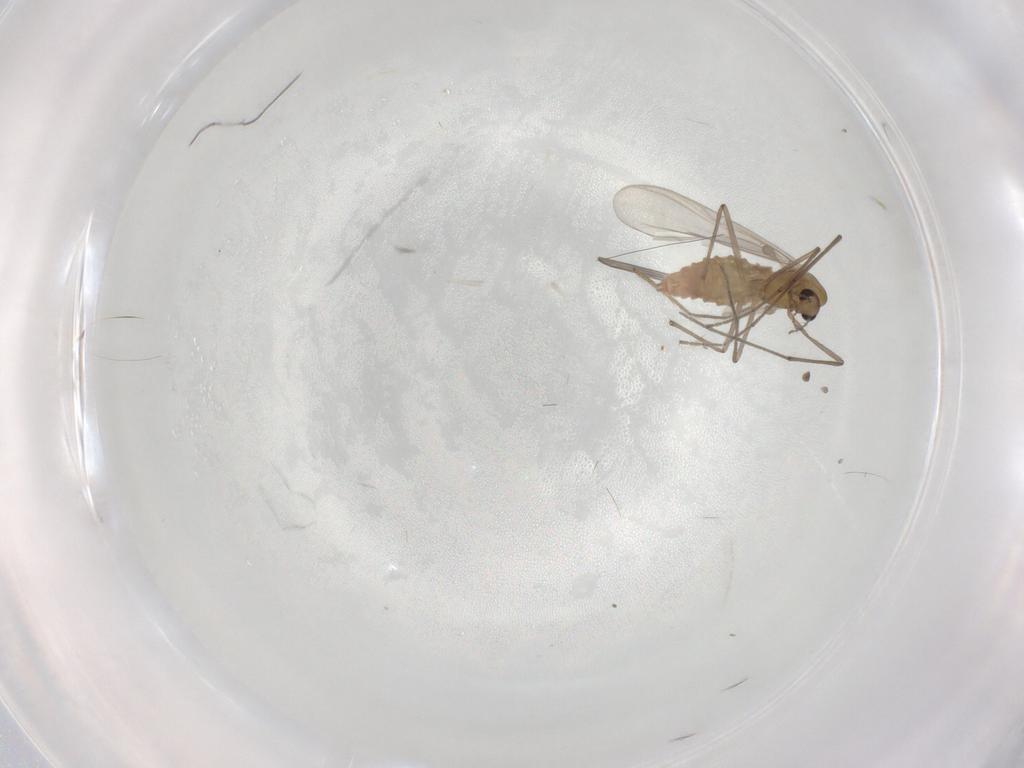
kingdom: Animalia
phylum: Arthropoda
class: Insecta
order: Diptera
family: Chironomidae
